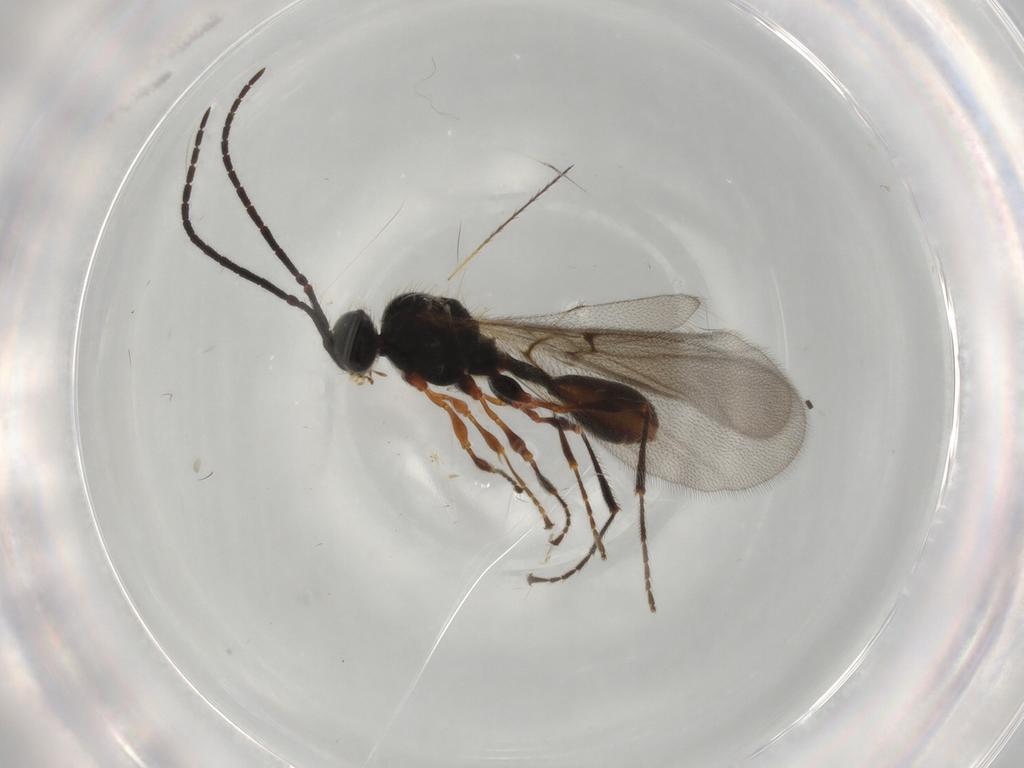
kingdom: Animalia
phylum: Arthropoda
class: Insecta
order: Hymenoptera
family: Diapriidae
